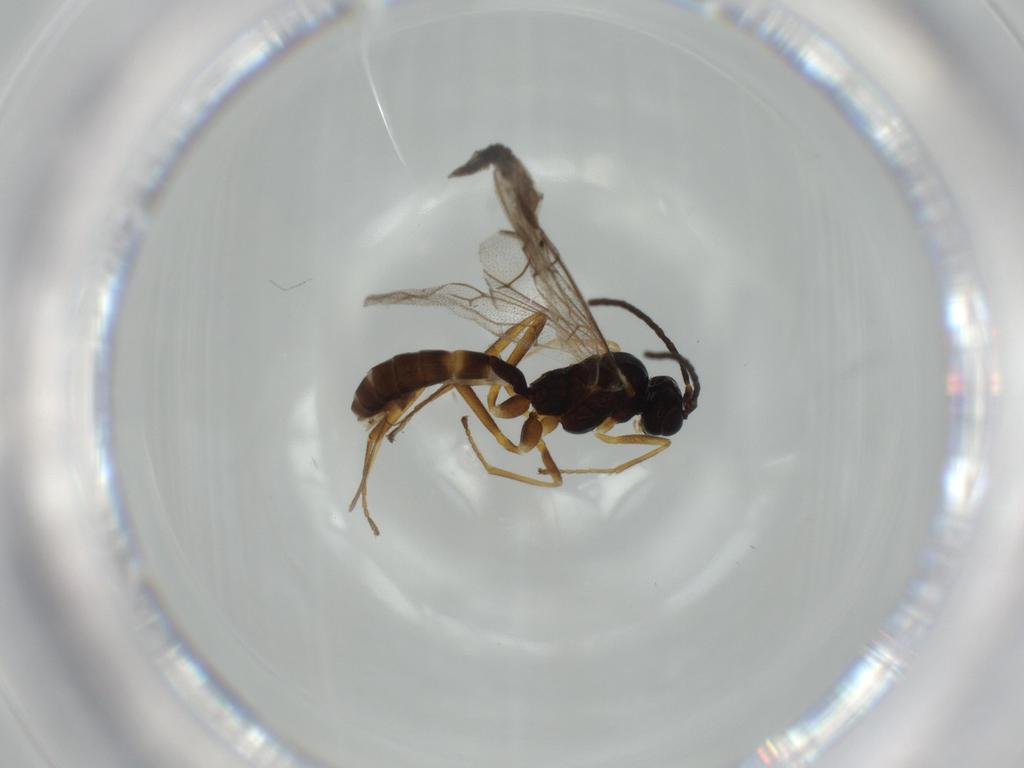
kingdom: Animalia
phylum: Arthropoda
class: Insecta
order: Hymenoptera
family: Ichneumonidae
